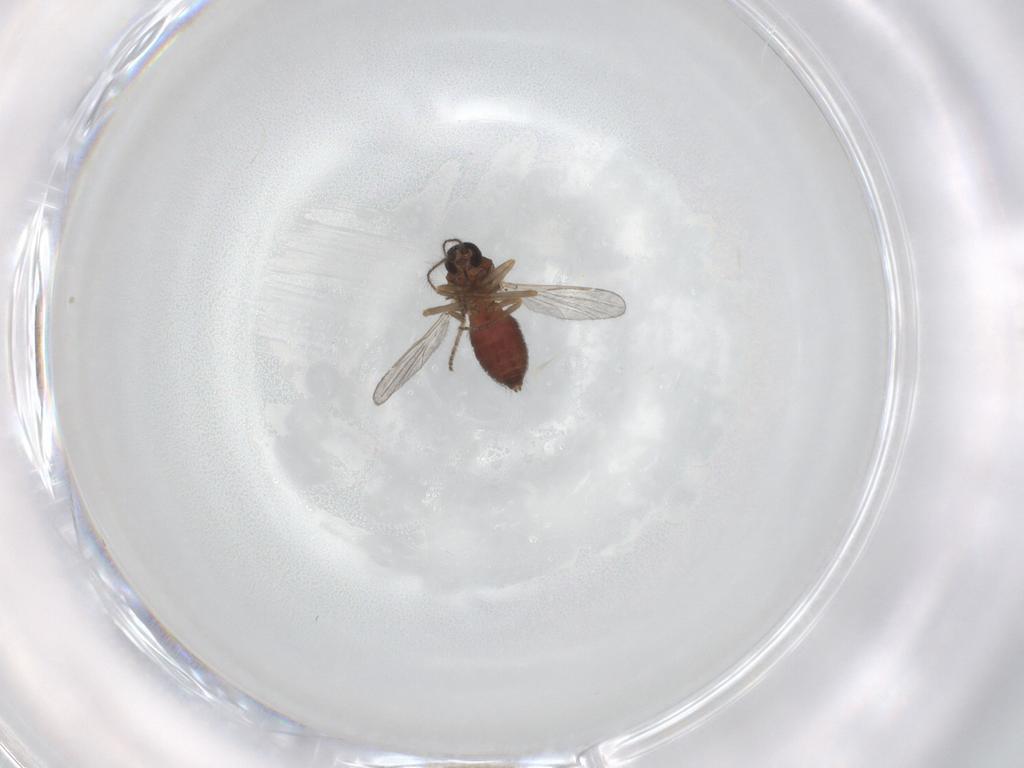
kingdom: Animalia
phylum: Arthropoda
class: Insecta
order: Diptera
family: Ceratopogonidae
